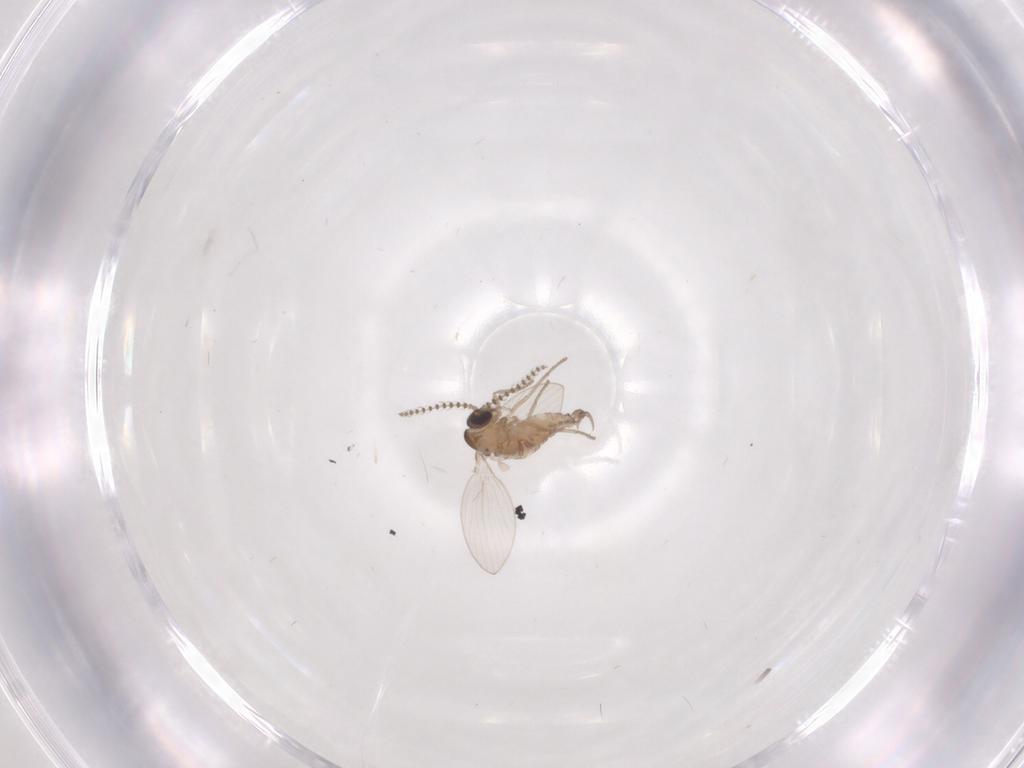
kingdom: Animalia
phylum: Arthropoda
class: Insecta
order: Diptera
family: Psychodidae
